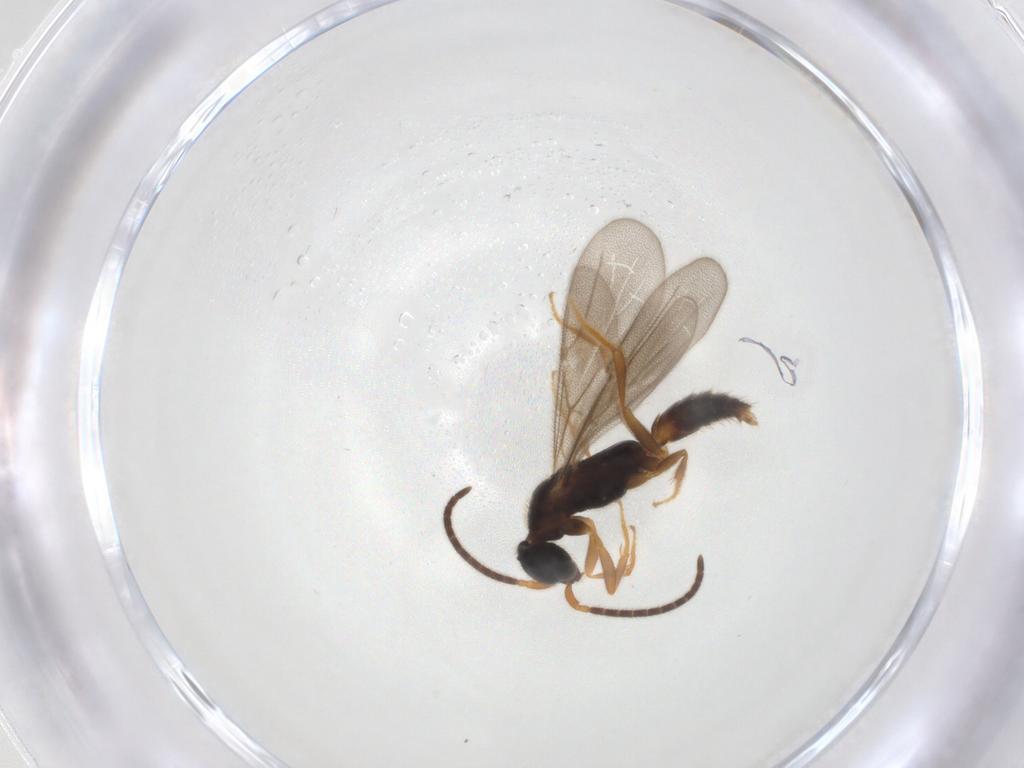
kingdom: Animalia
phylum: Arthropoda
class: Insecta
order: Hymenoptera
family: Bethylidae
